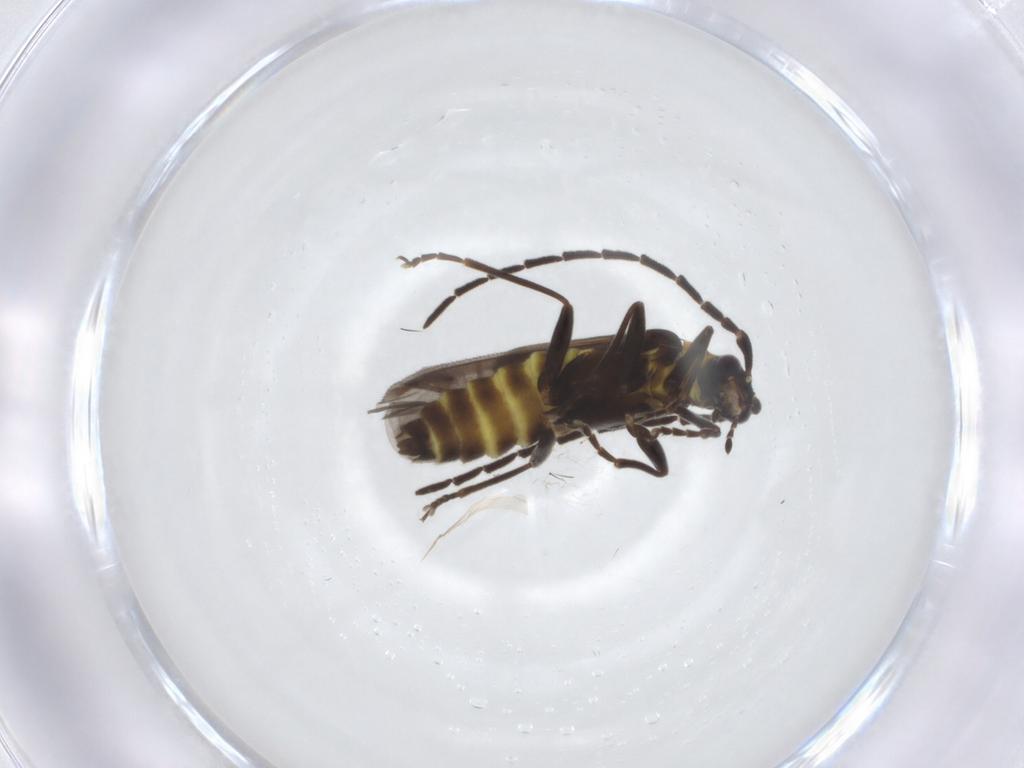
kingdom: Animalia
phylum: Arthropoda
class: Insecta
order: Coleoptera
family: Cantharidae
